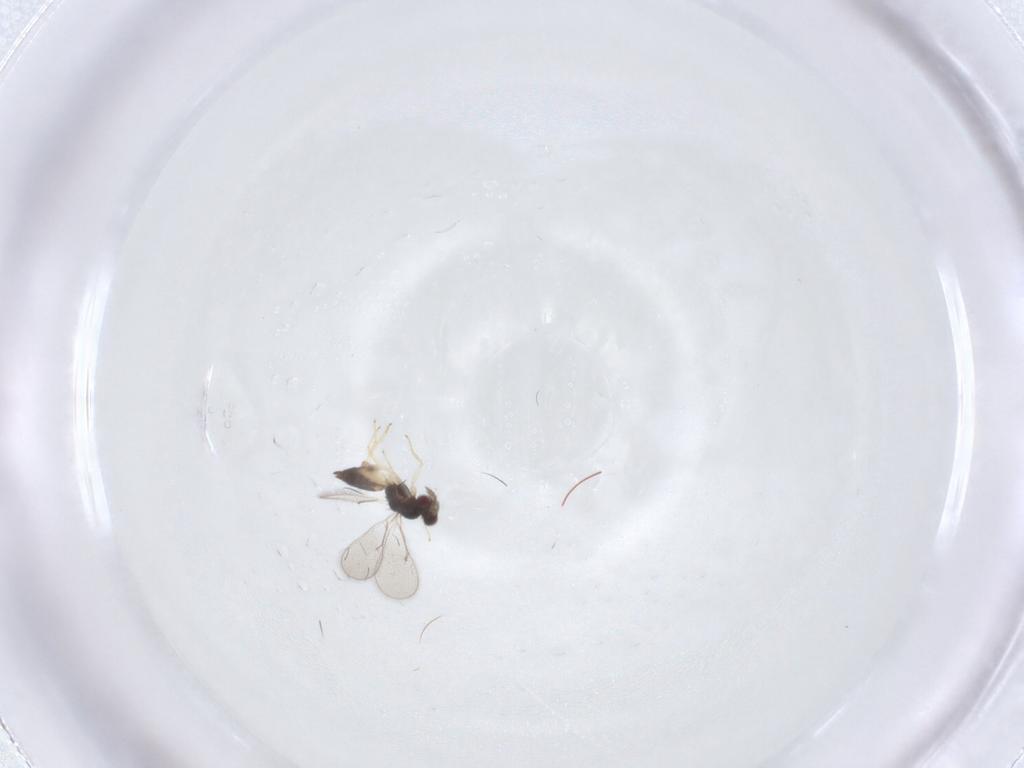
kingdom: Animalia
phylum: Arthropoda
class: Insecta
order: Hymenoptera
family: Eulophidae
